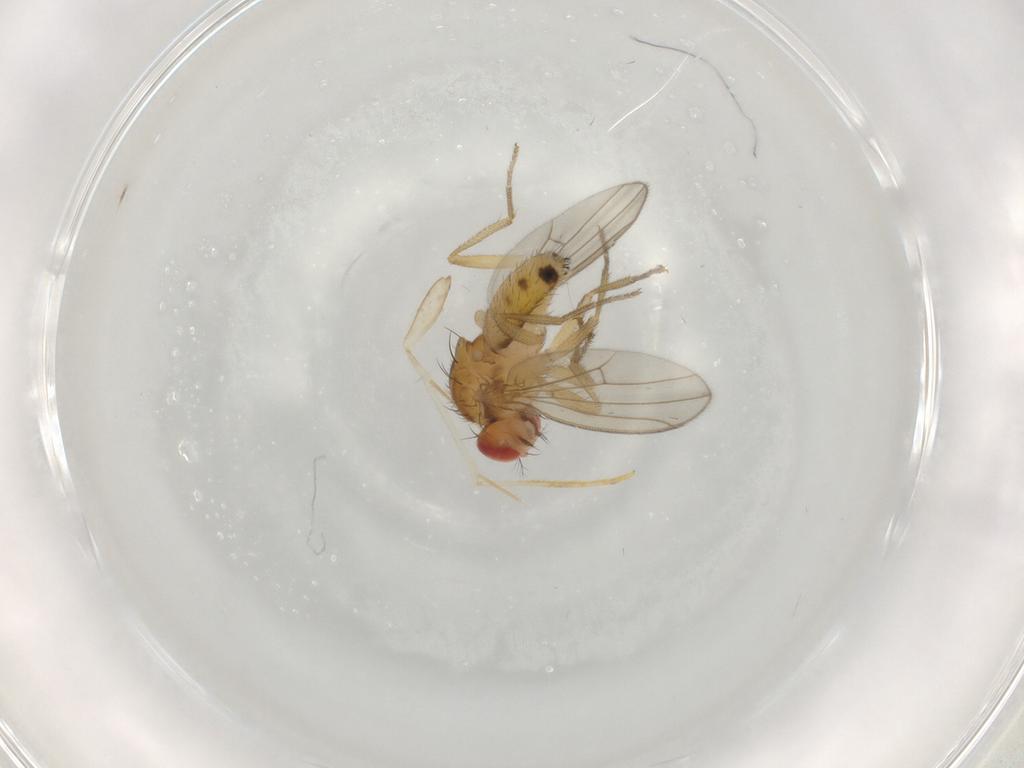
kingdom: Animalia
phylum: Arthropoda
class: Insecta
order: Diptera
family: Drosophilidae
